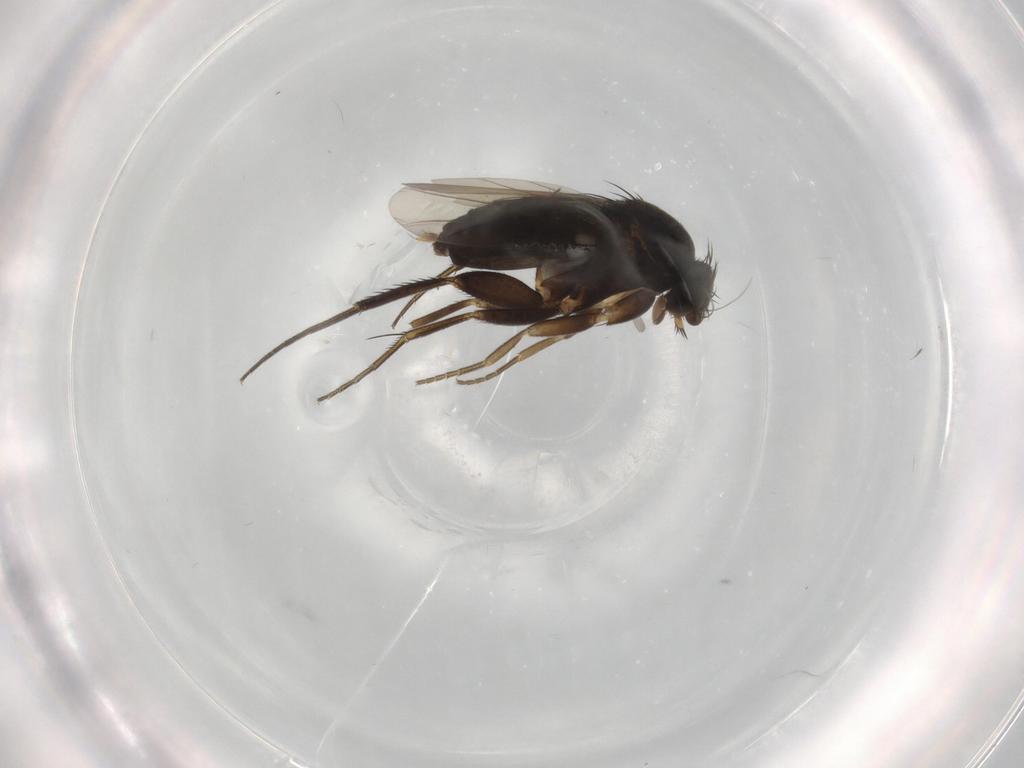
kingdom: Animalia
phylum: Arthropoda
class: Insecta
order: Diptera
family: Phoridae
